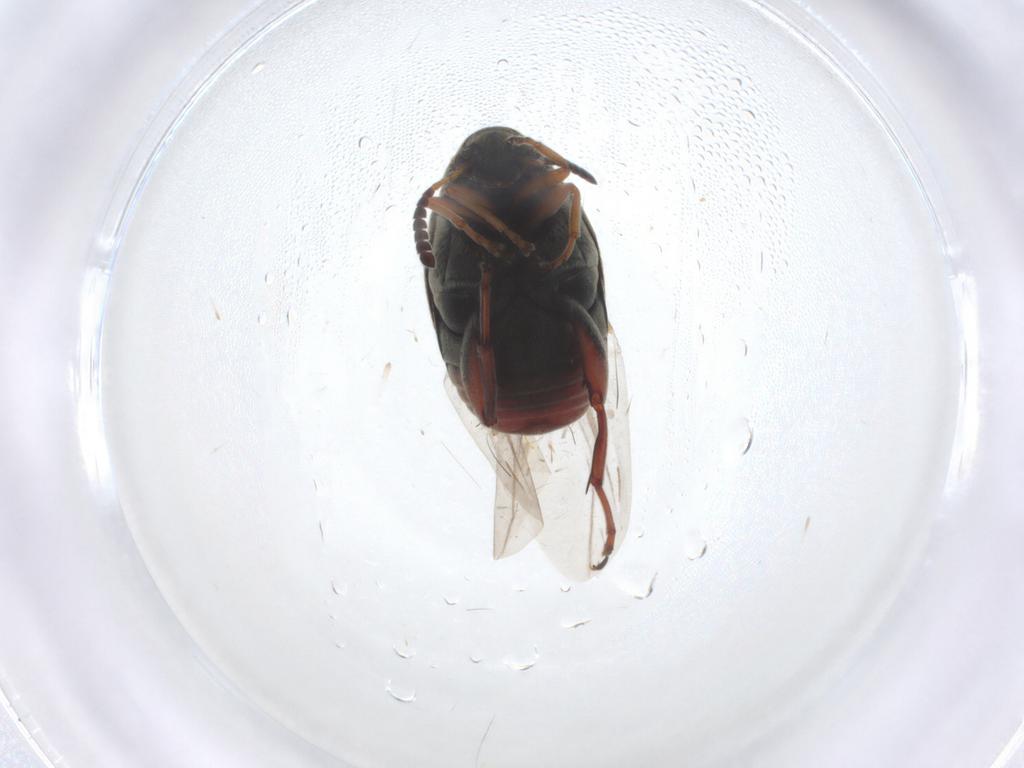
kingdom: Animalia
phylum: Arthropoda
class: Insecta
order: Coleoptera
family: Chrysomelidae
